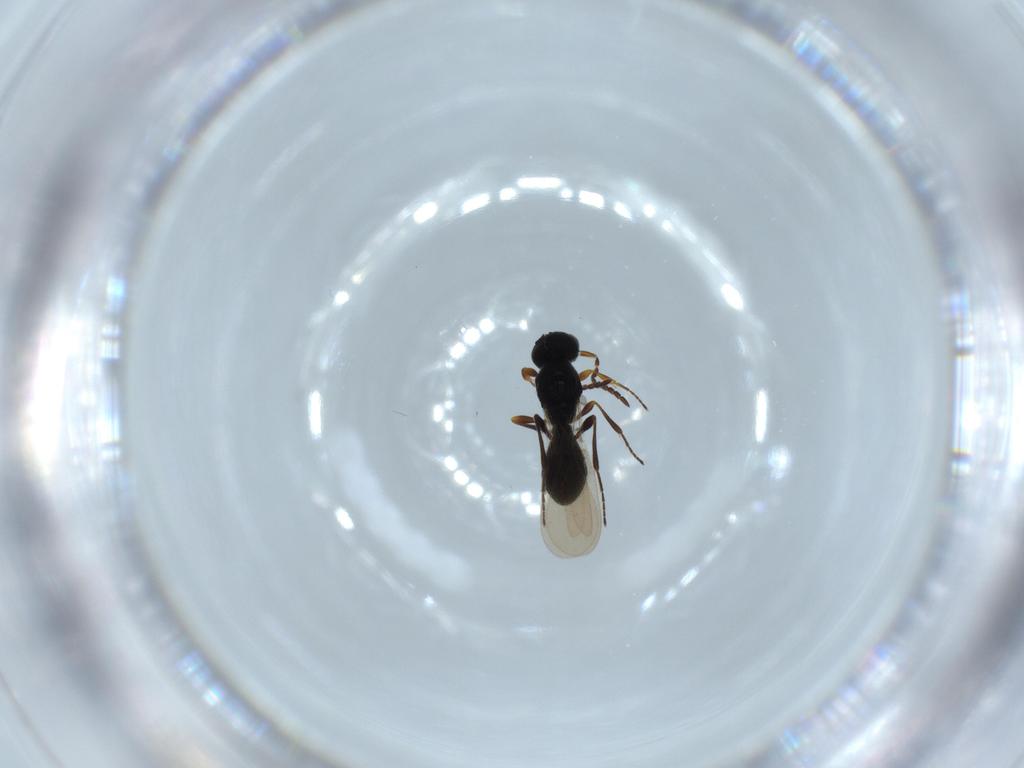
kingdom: Animalia
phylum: Arthropoda
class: Insecta
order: Hymenoptera
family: Platygastridae
